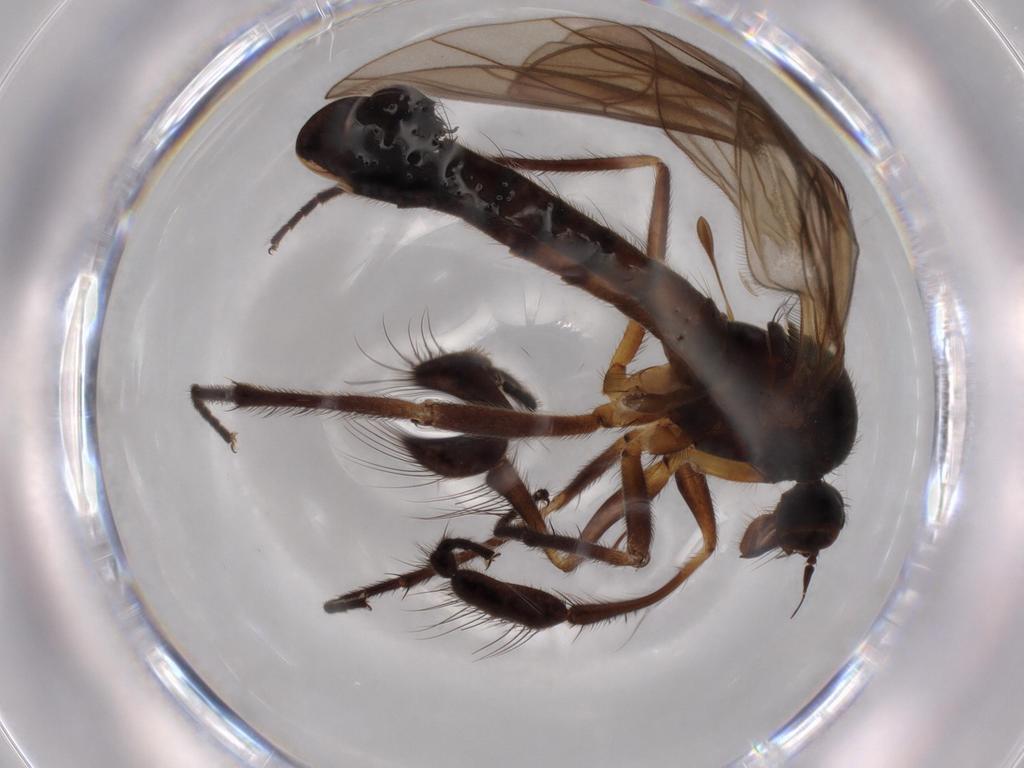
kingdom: Animalia
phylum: Arthropoda
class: Insecta
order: Diptera
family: Empididae
